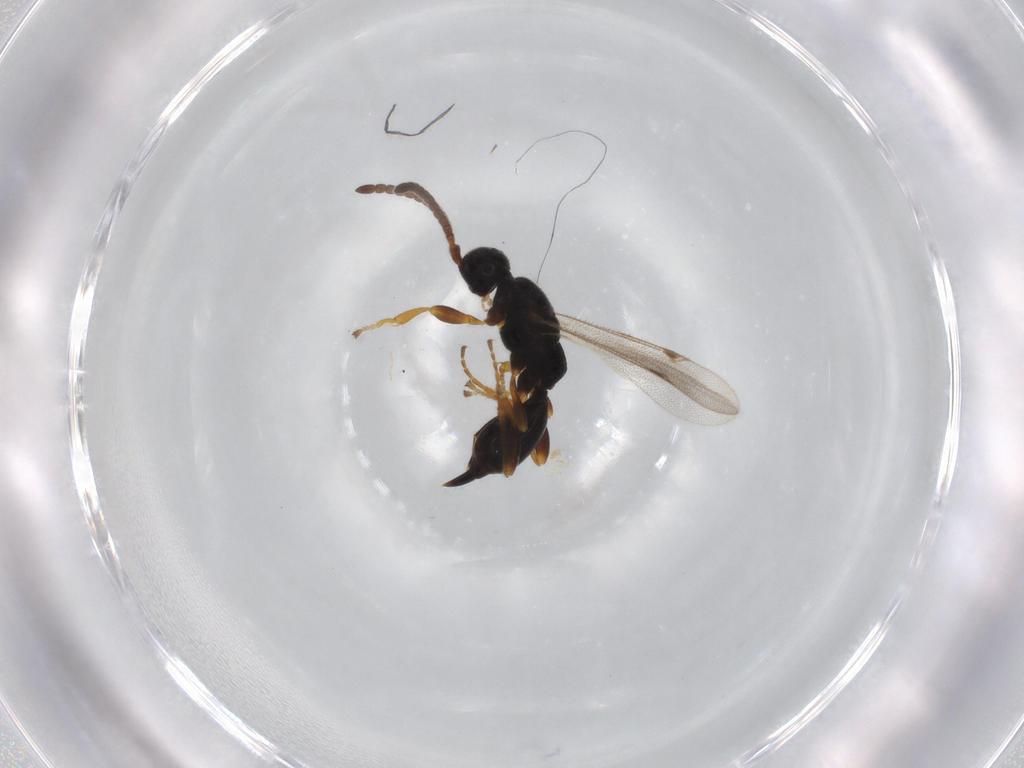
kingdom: Animalia
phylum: Arthropoda
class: Insecta
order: Hymenoptera
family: Proctotrupidae
